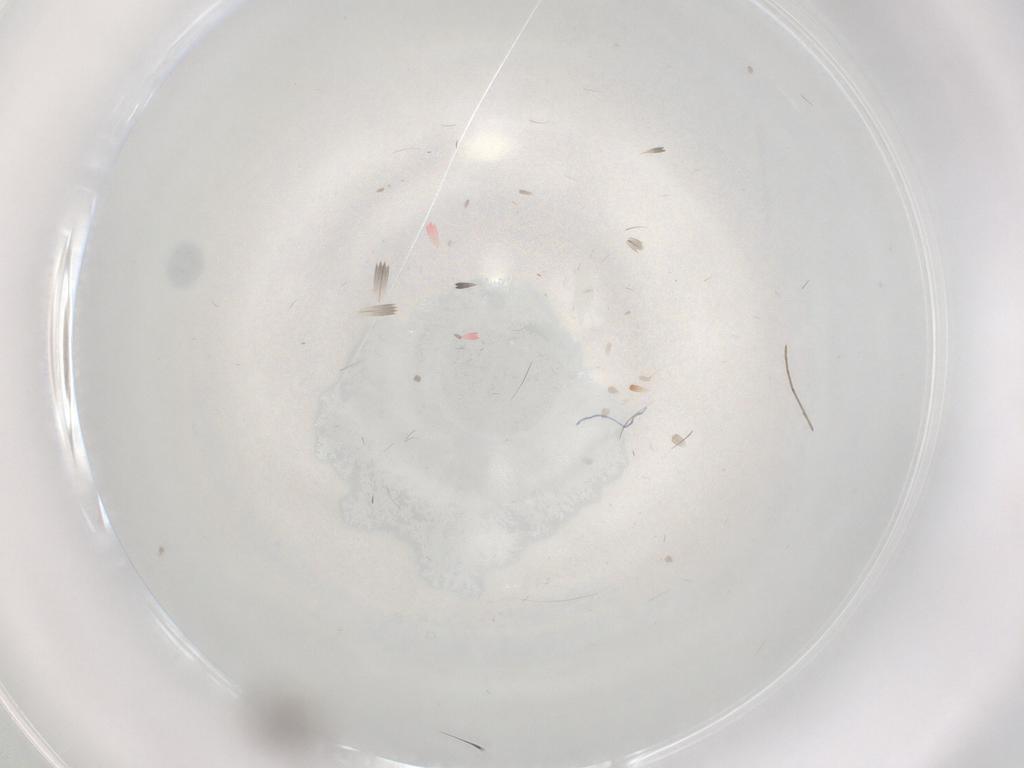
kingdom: Animalia
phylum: Arthropoda
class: Insecta
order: Diptera
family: Cecidomyiidae
